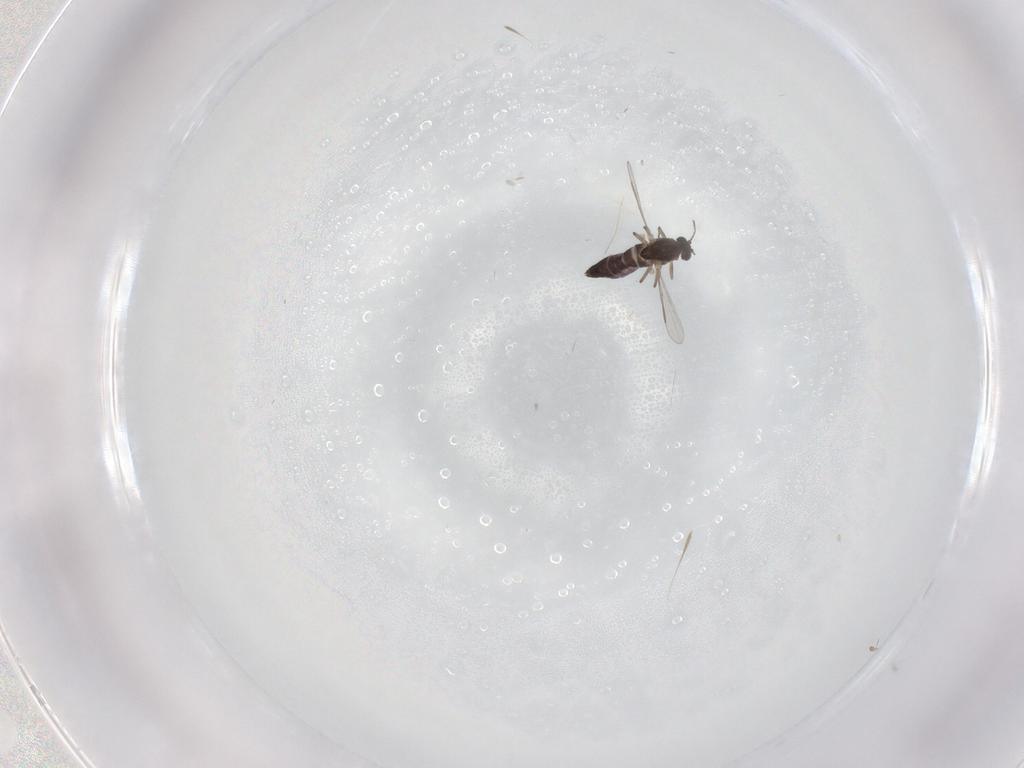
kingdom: Animalia
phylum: Arthropoda
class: Insecta
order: Diptera
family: Chironomidae
